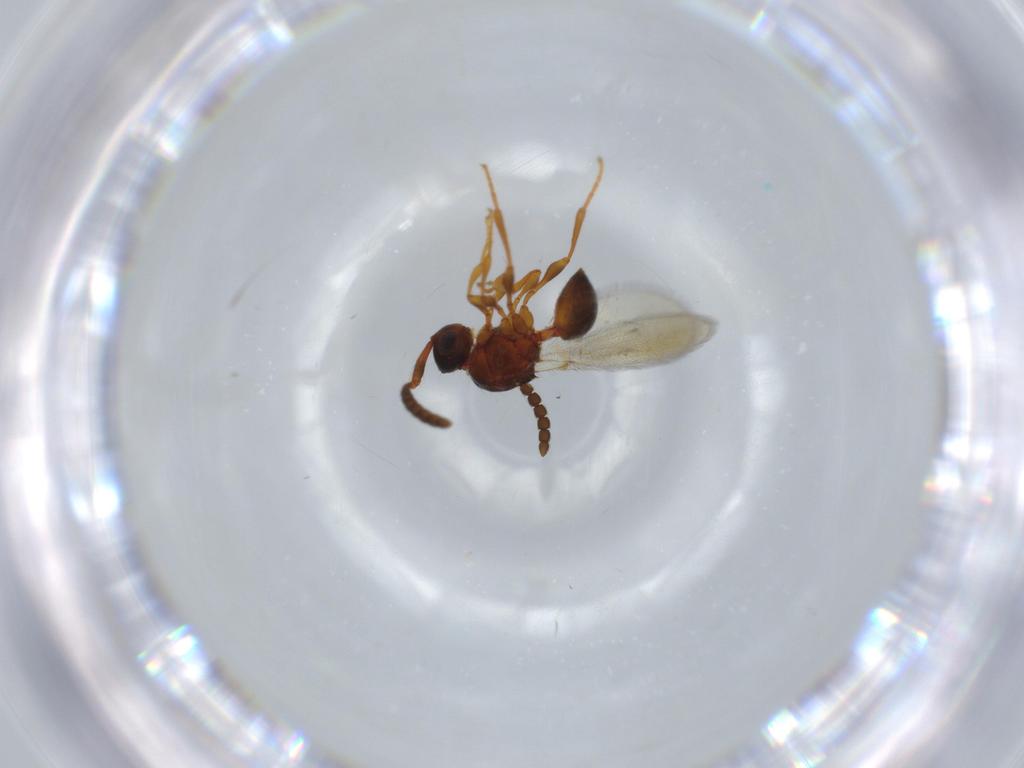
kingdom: Animalia
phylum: Arthropoda
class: Insecta
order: Hymenoptera
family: Diapriidae
